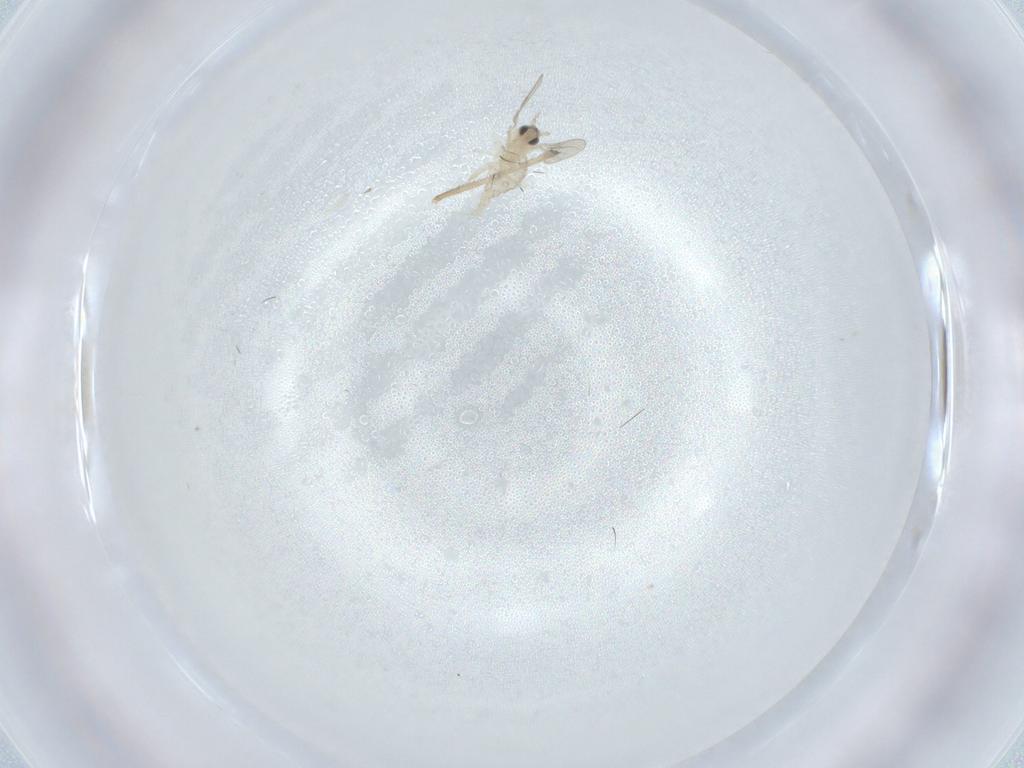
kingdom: Animalia
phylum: Arthropoda
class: Insecta
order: Diptera
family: Cecidomyiidae
